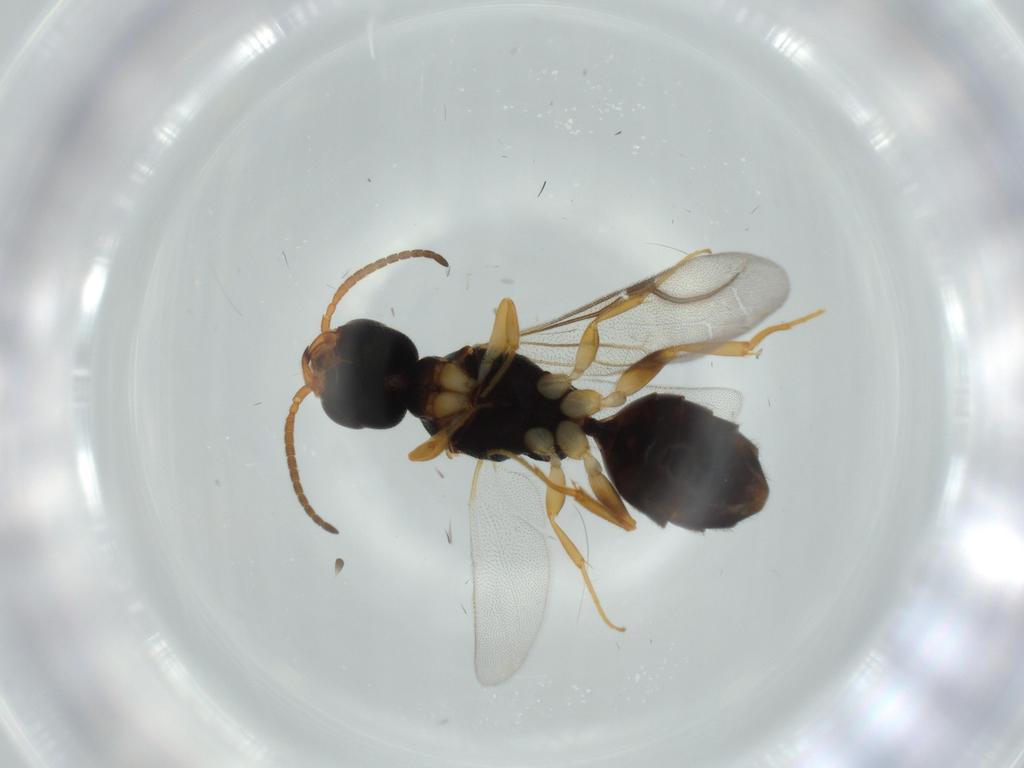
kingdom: Animalia
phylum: Arthropoda
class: Insecta
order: Hymenoptera
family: Bethylidae
